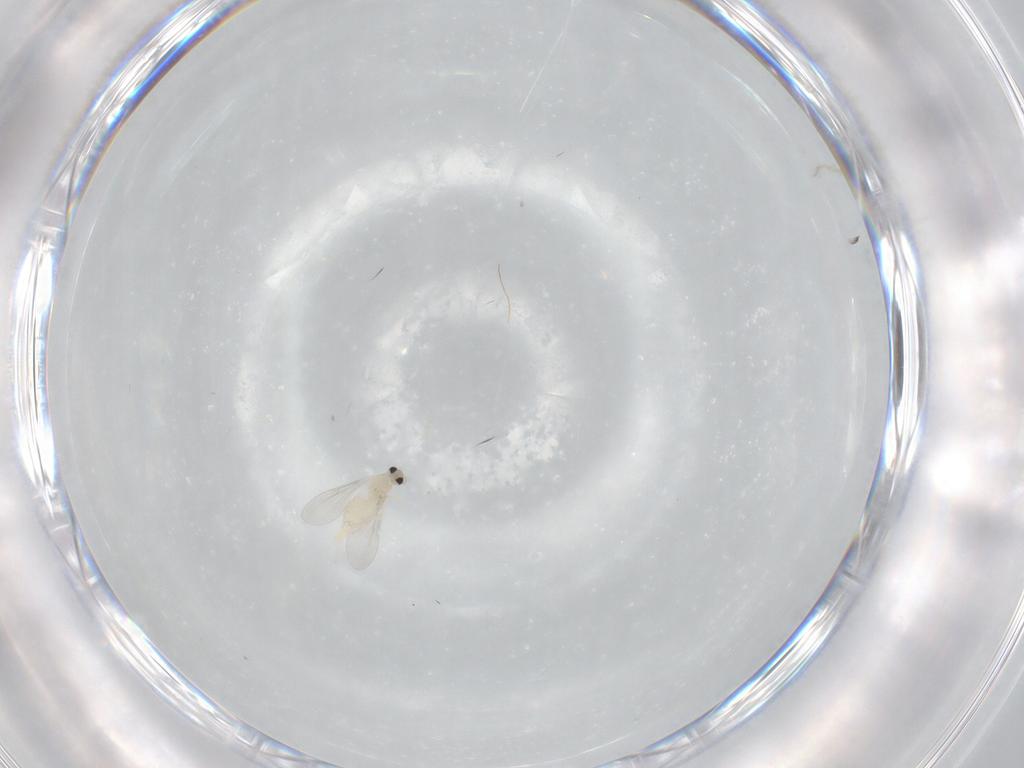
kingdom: Animalia
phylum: Arthropoda
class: Insecta
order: Diptera
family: Cecidomyiidae
